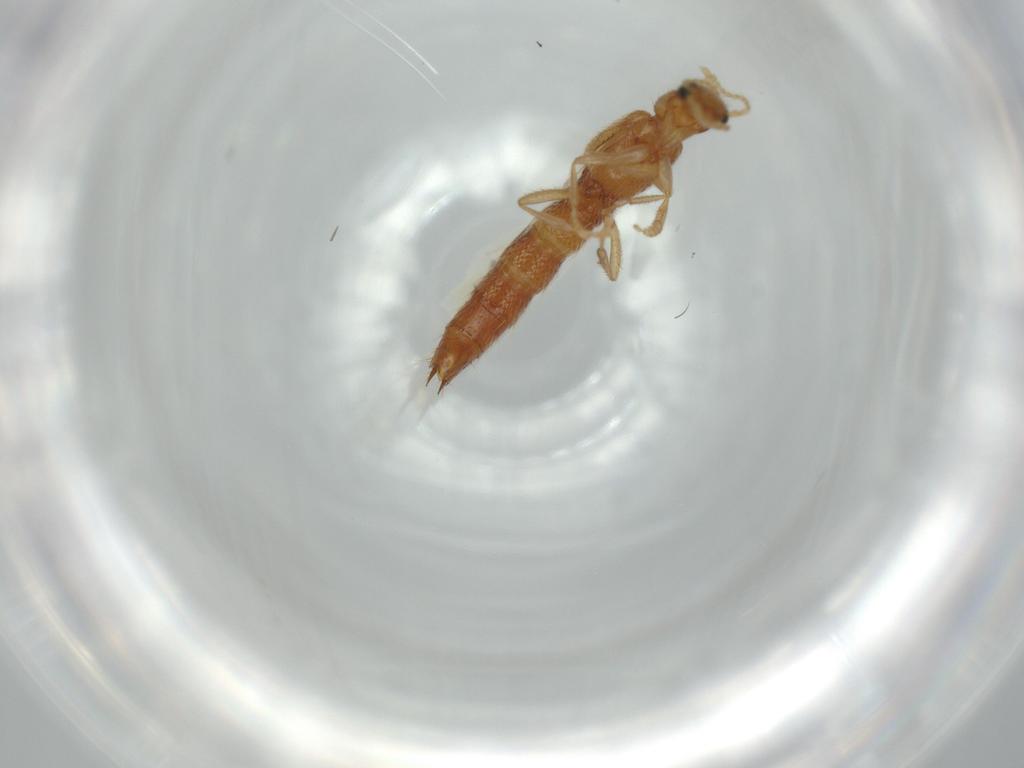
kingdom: Animalia
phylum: Arthropoda
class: Insecta
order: Coleoptera
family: Staphylinidae
